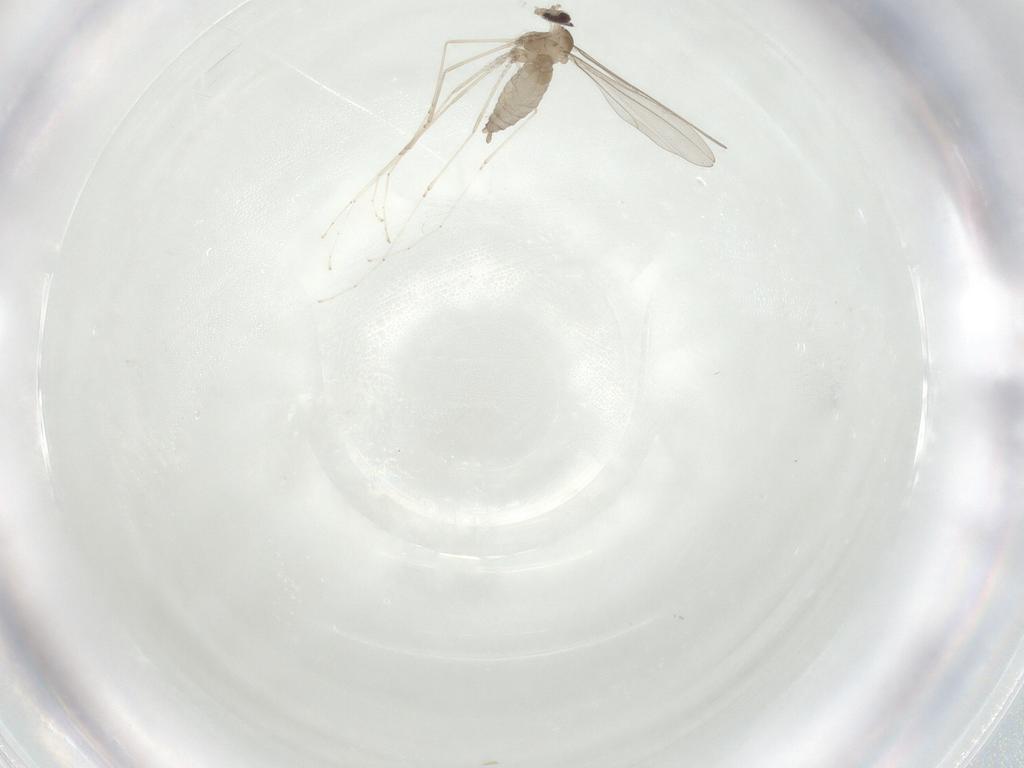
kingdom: Animalia
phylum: Arthropoda
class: Insecta
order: Diptera
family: Cecidomyiidae
